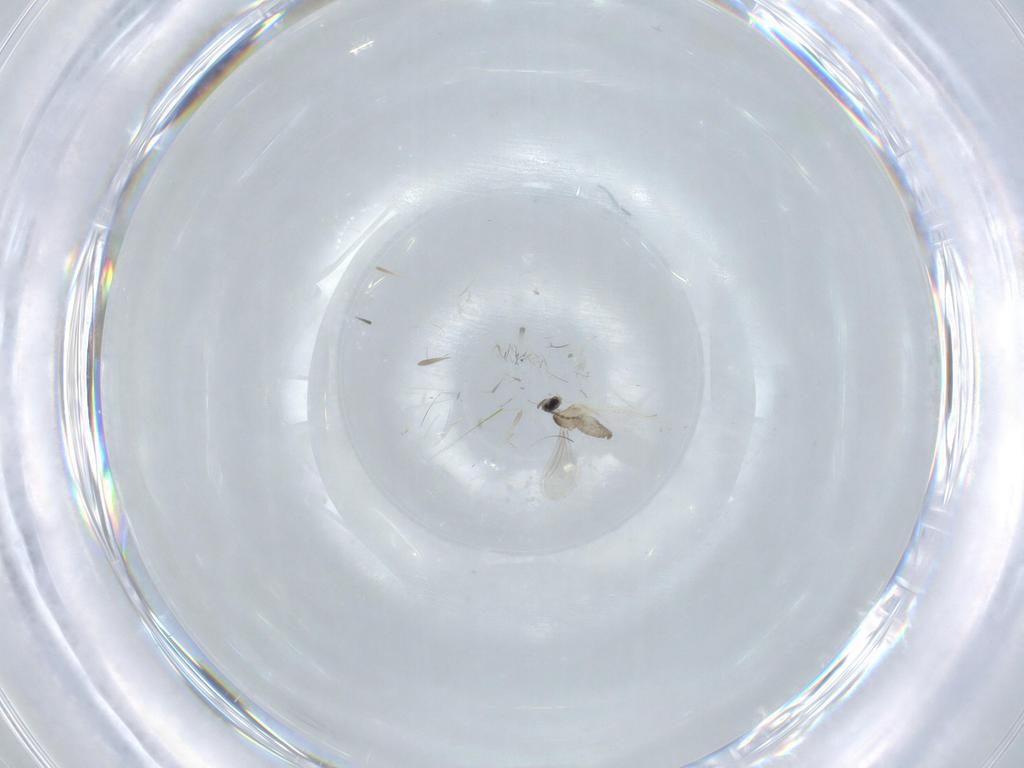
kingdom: Animalia
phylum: Arthropoda
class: Insecta
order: Diptera
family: Cecidomyiidae
